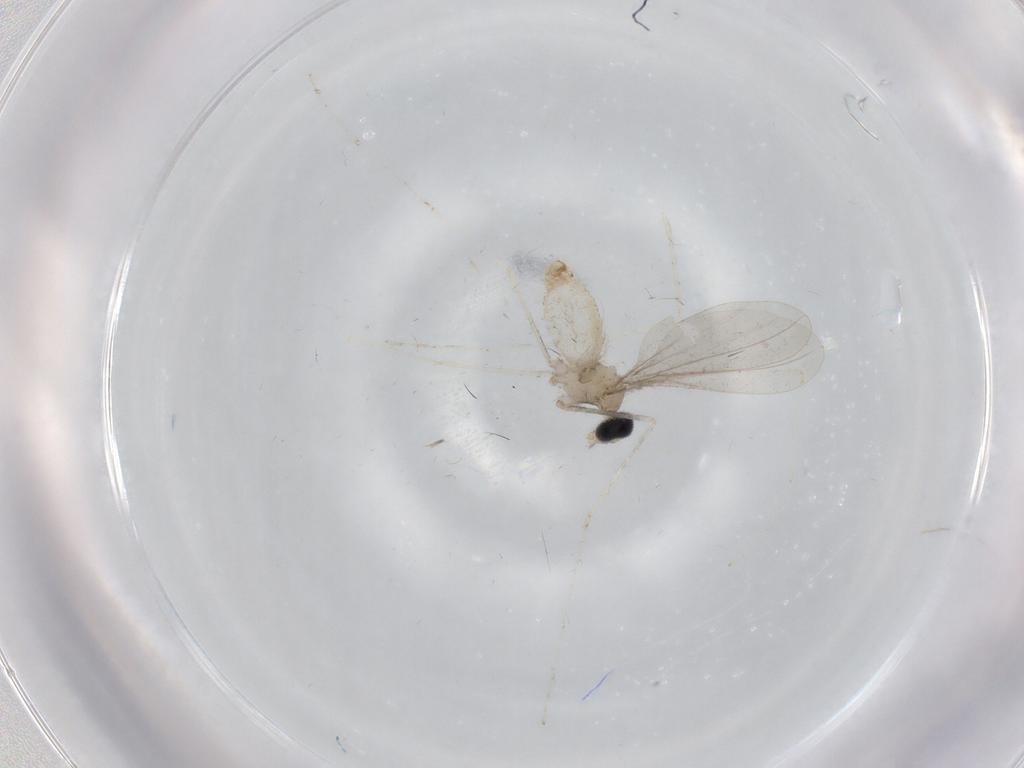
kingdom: Animalia
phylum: Arthropoda
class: Insecta
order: Diptera
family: Cecidomyiidae
